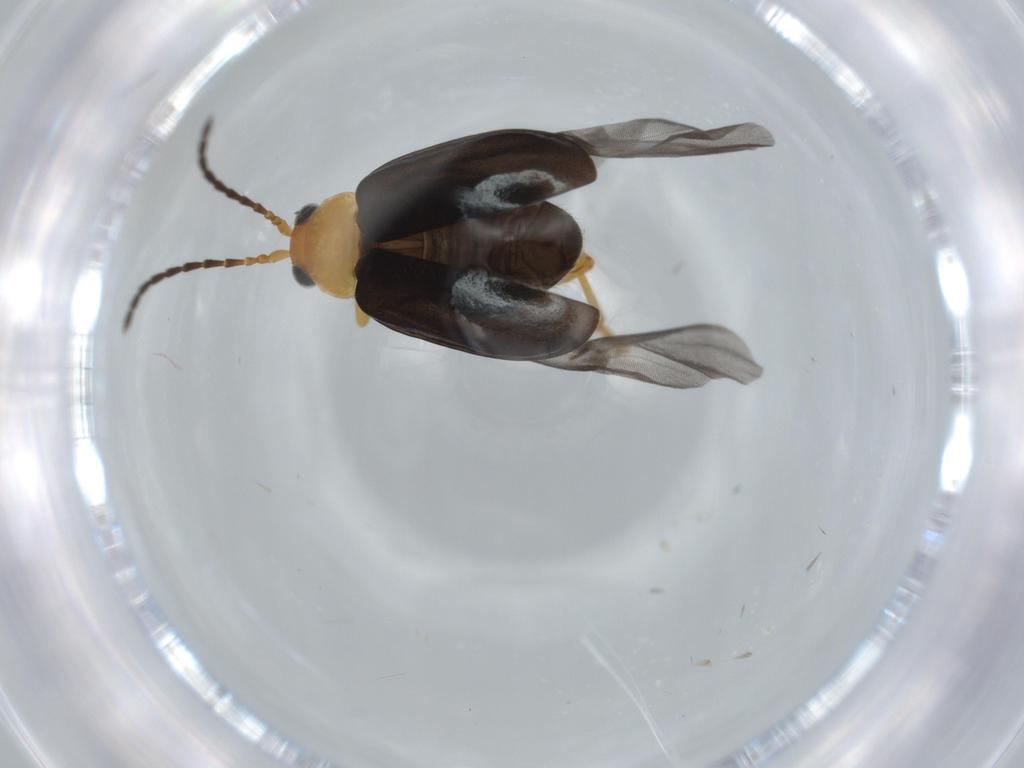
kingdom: Animalia
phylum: Arthropoda
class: Insecta
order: Coleoptera
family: Chrysomelidae
